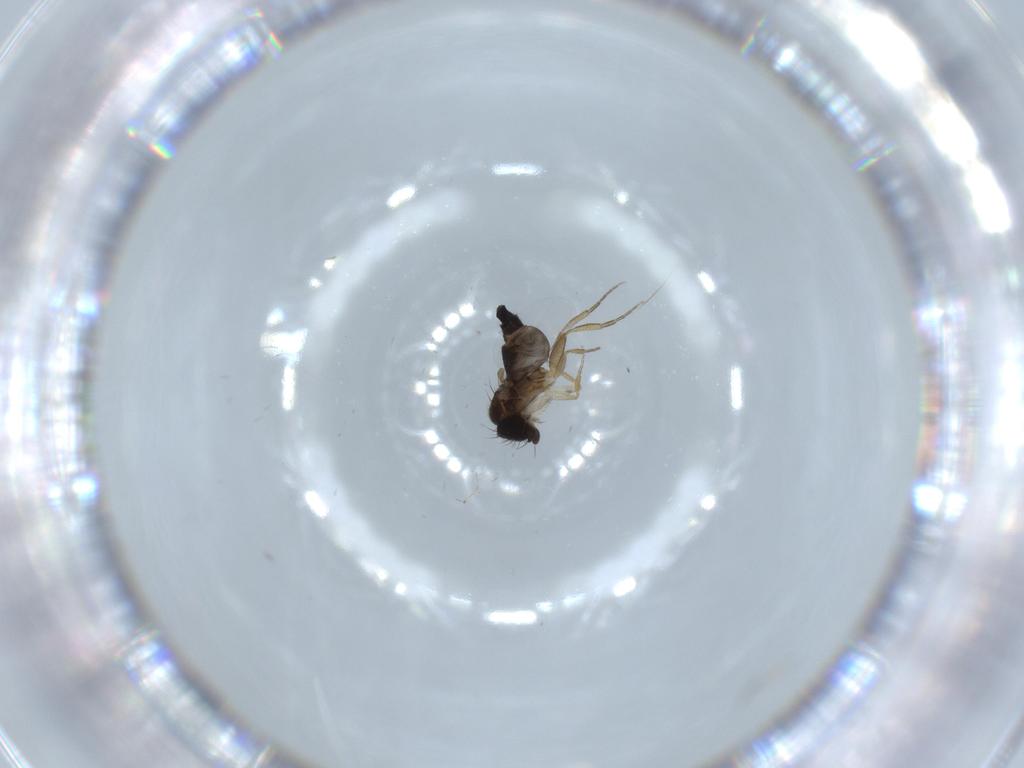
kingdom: Animalia
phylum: Arthropoda
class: Insecta
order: Diptera
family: Phoridae
